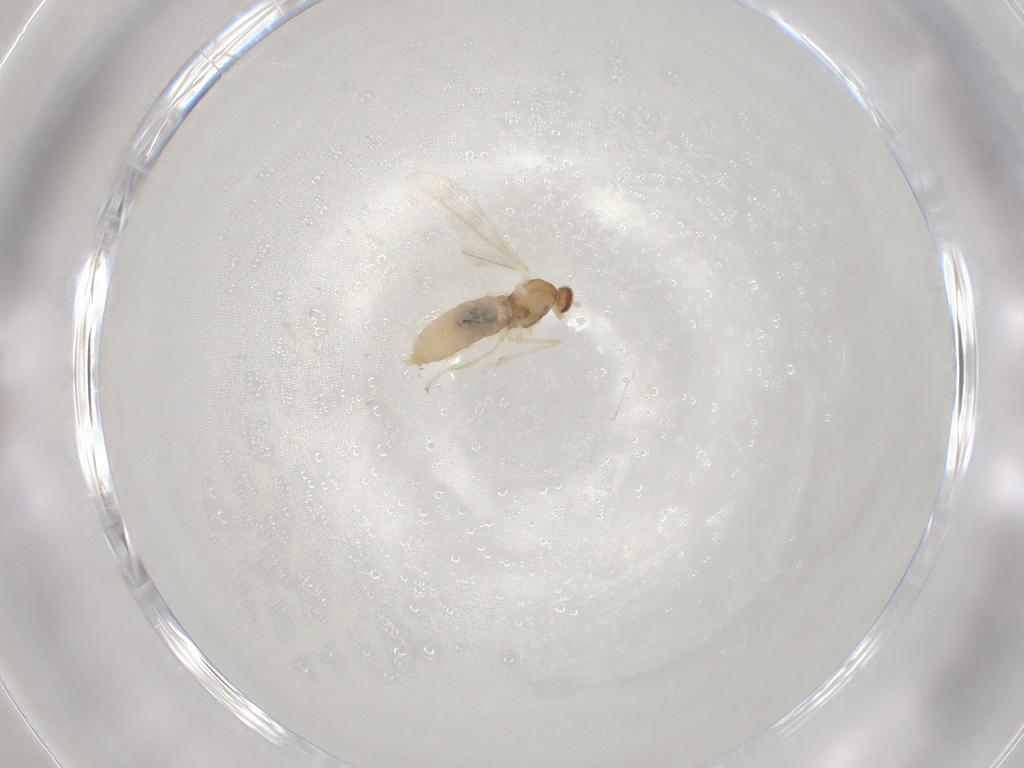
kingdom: Animalia
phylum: Arthropoda
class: Insecta
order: Diptera
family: Cecidomyiidae
